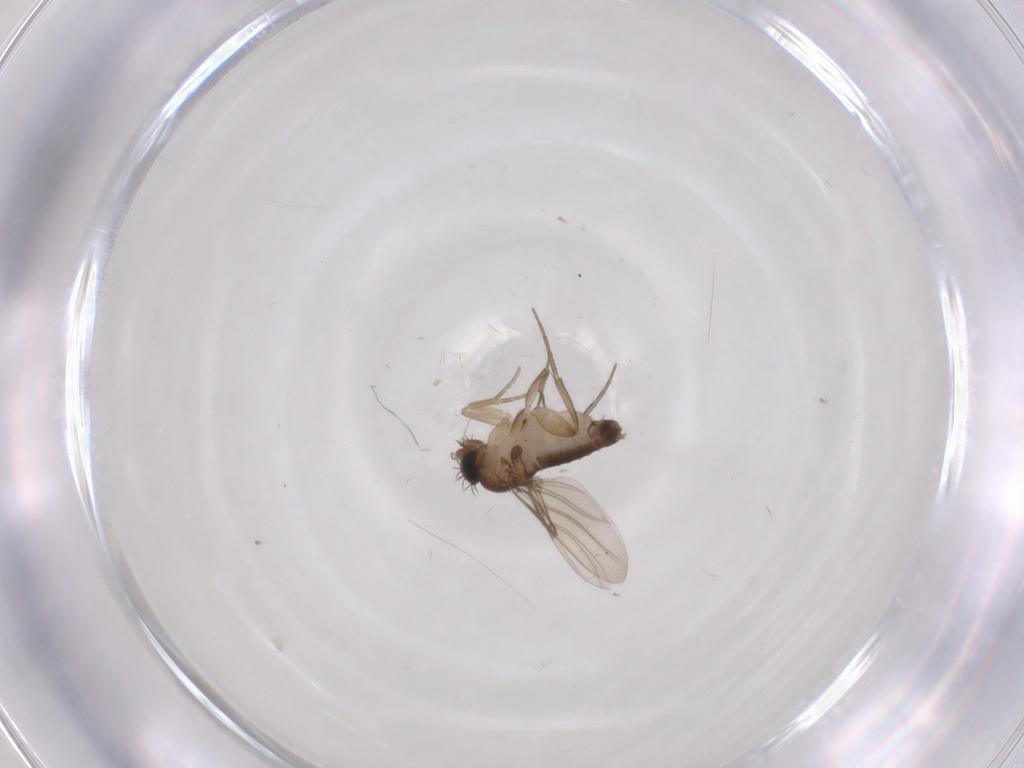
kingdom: Animalia
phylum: Arthropoda
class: Insecta
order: Diptera
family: Phoridae
